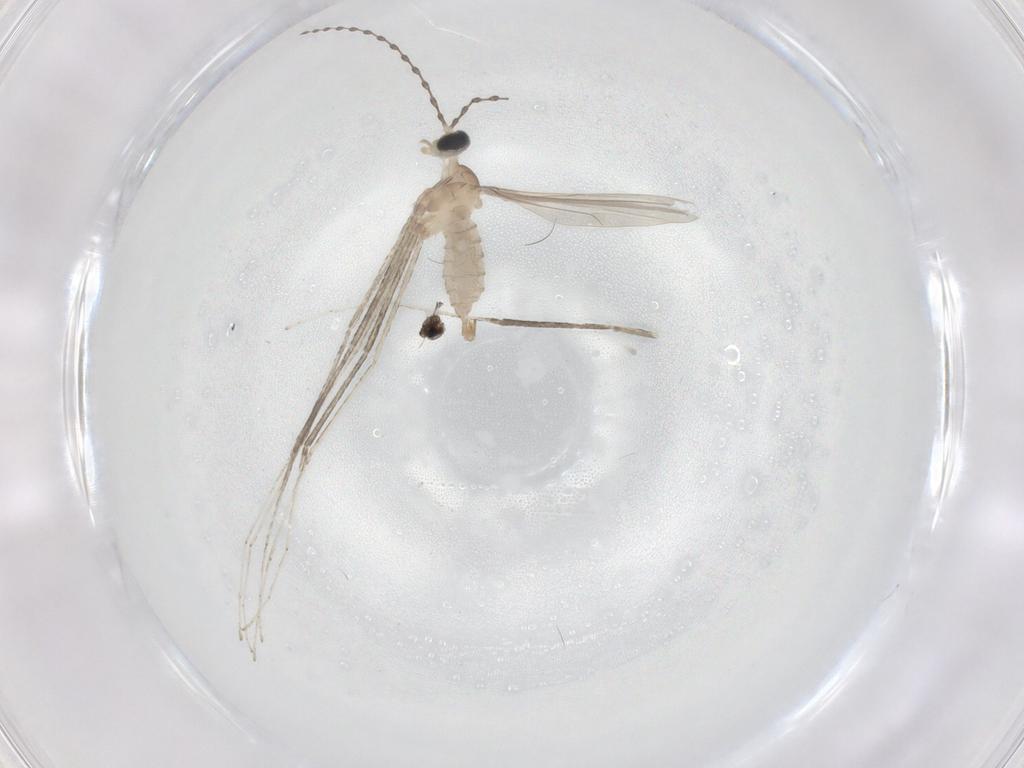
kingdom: Animalia
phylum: Arthropoda
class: Insecta
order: Diptera
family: Cecidomyiidae
